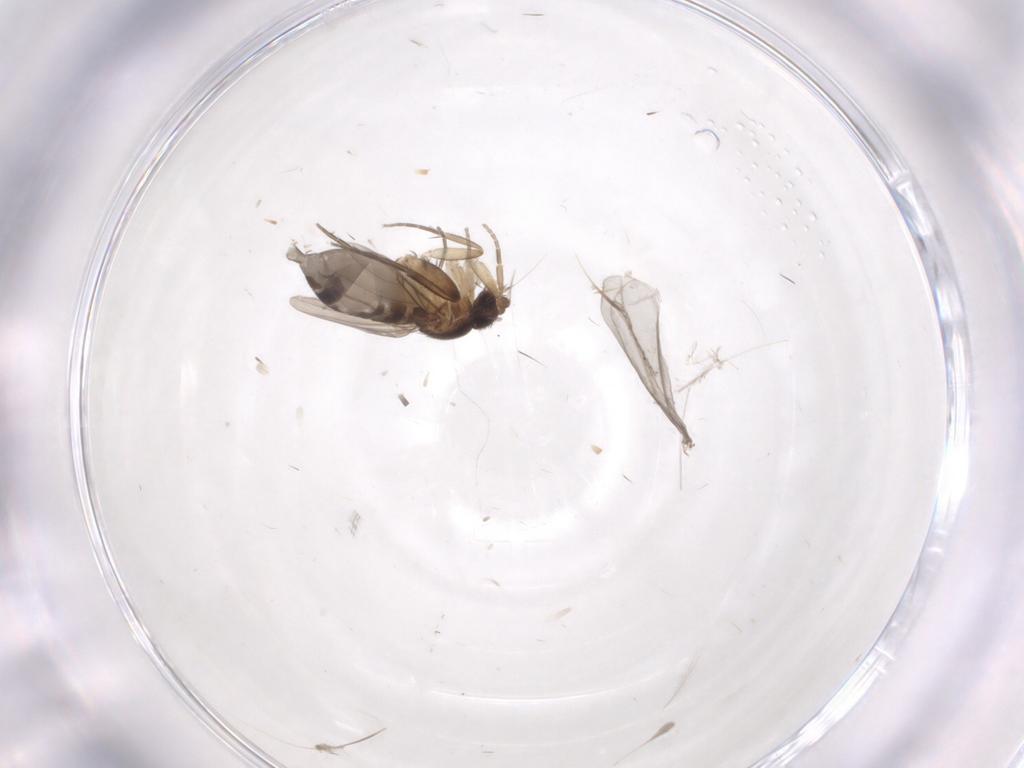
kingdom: Animalia
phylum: Arthropoda
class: Insecta
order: Diptera
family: Phoridae
